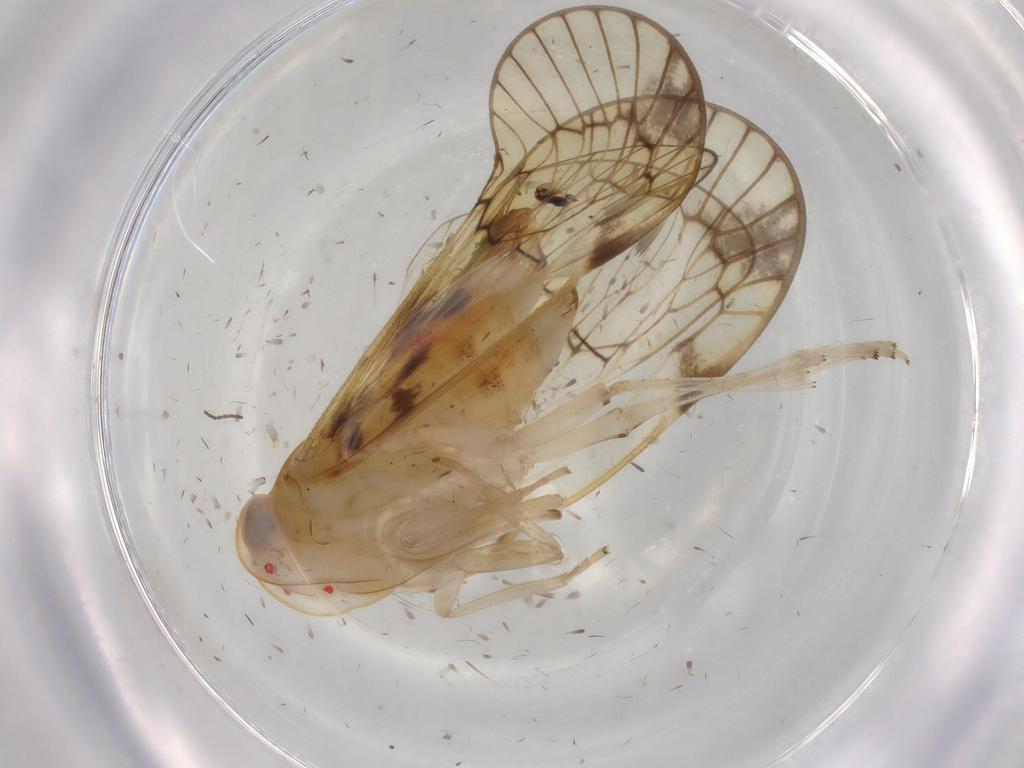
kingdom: Animalia
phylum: Arthropoda
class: Insecta
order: Hemiptera
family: Cixiidae
